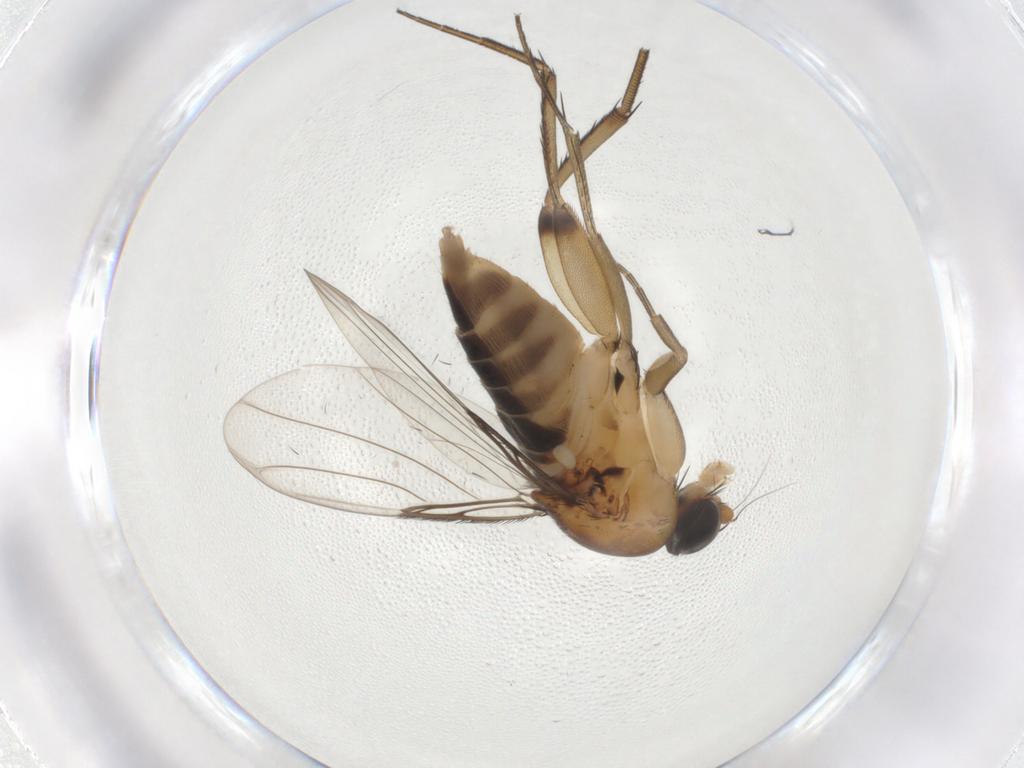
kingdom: Animalia
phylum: Arthropoda
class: Insecta
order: Diptera
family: Phoridae
